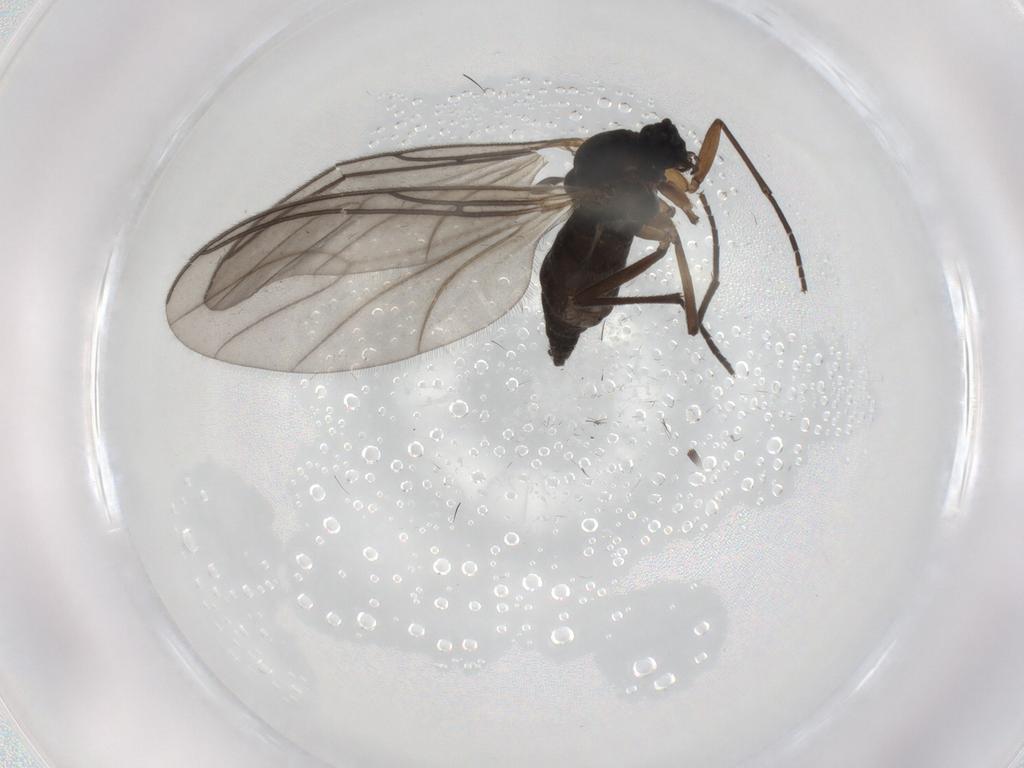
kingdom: Animalia
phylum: Arthropoda
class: Insecta
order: Diptera
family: Sciaridae
